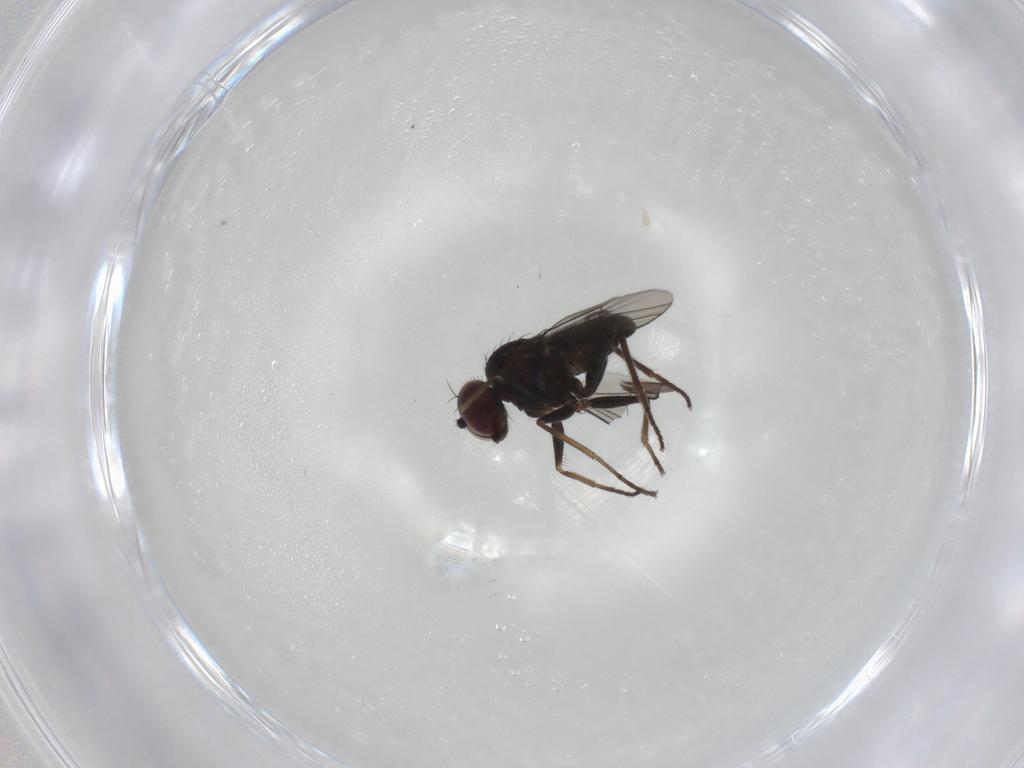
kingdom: Animalia
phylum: Arthropoda
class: Insecta
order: Diptera
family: Dolichopodidae
